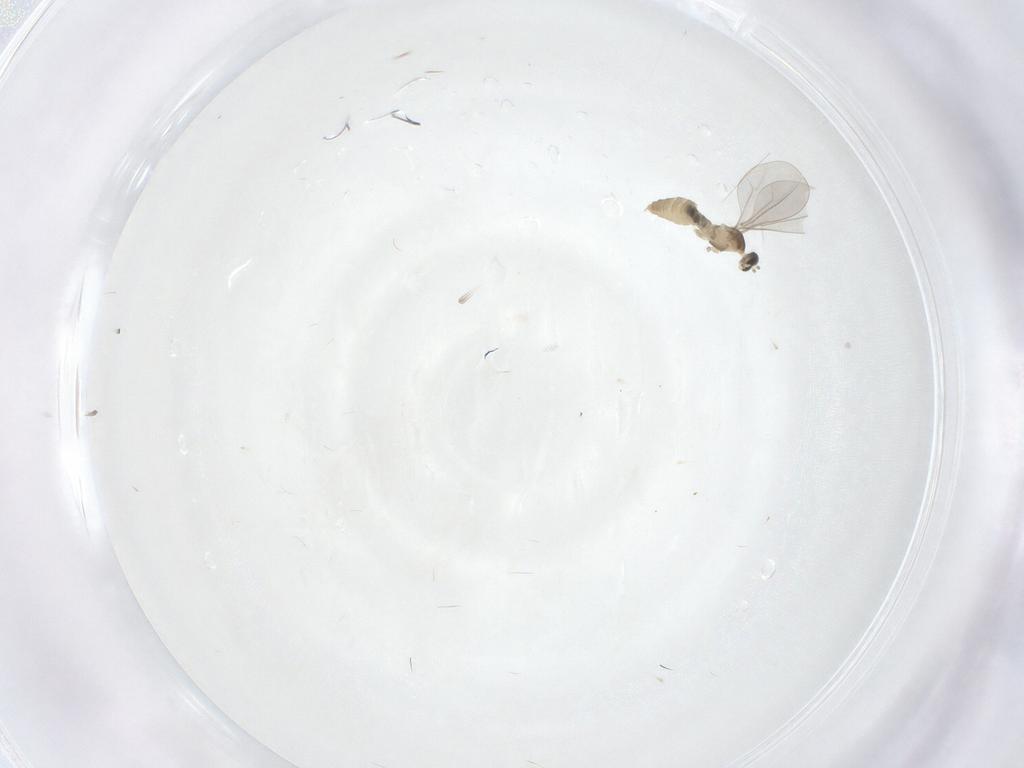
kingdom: Animalia
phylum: Arthropoda
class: Insecta
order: Diptera
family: Cecidomyiidae
